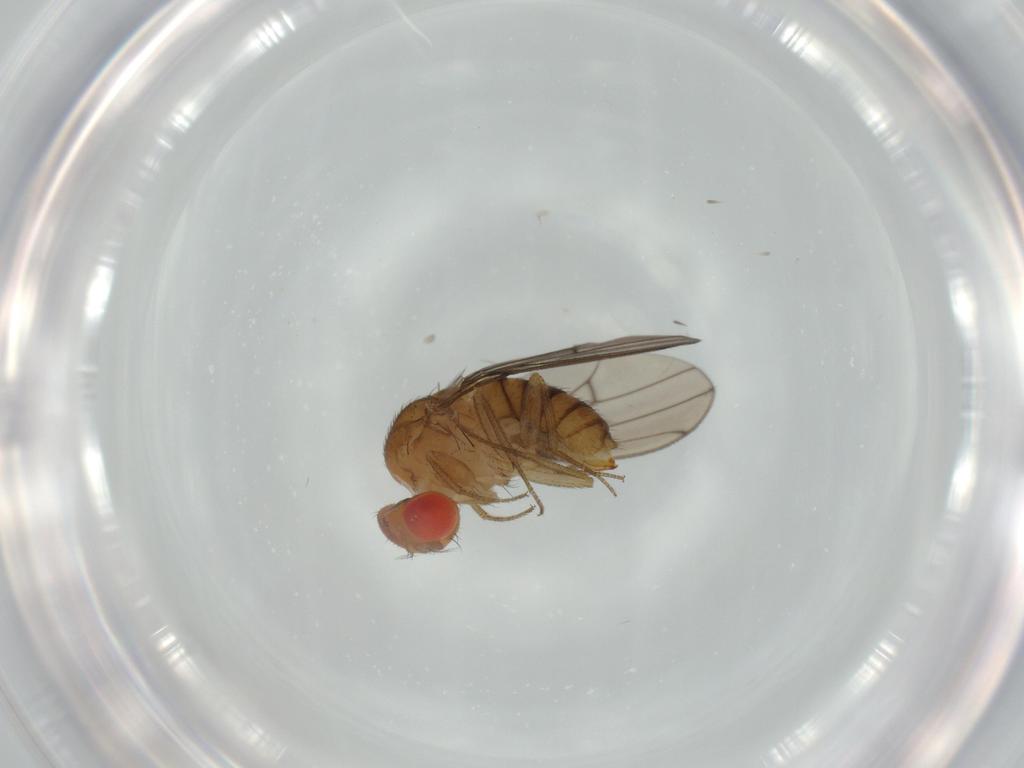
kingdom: Animalia
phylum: Arthropoda
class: Insecta
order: Diptera
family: Drosophilidae
